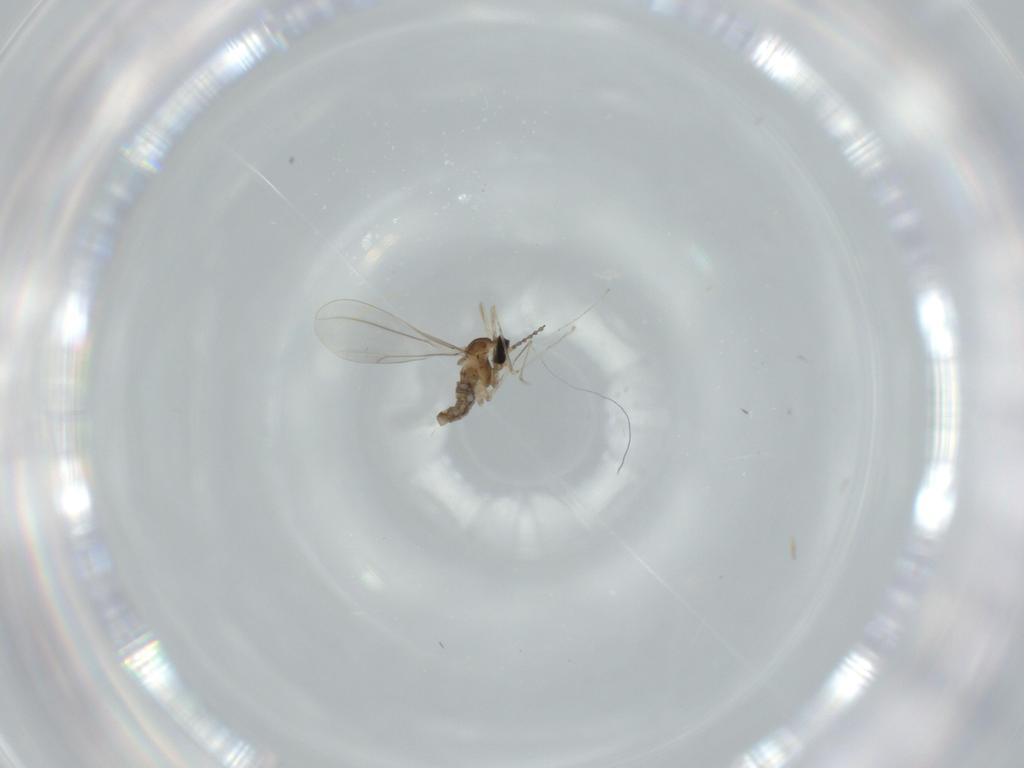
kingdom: Animalia
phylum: Arthropoda
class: Insecta
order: Diptera
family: Cecidomyiidae
